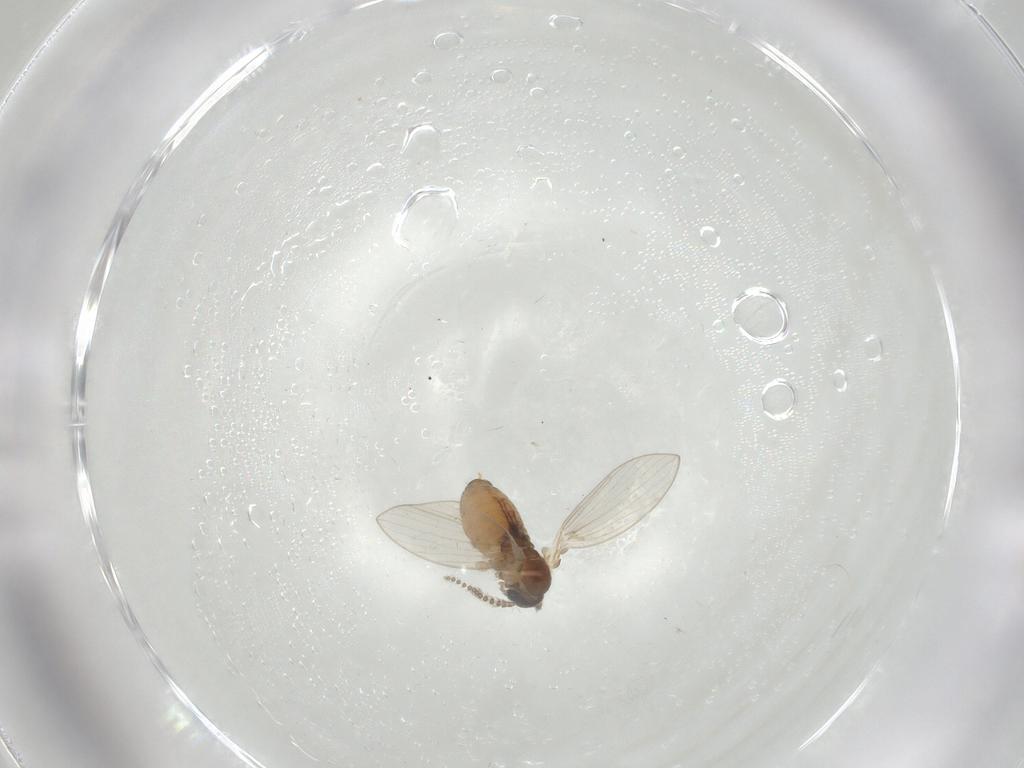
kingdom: Animalia
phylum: Arthropoda
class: Insecta
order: Diptera
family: Psychodidae
